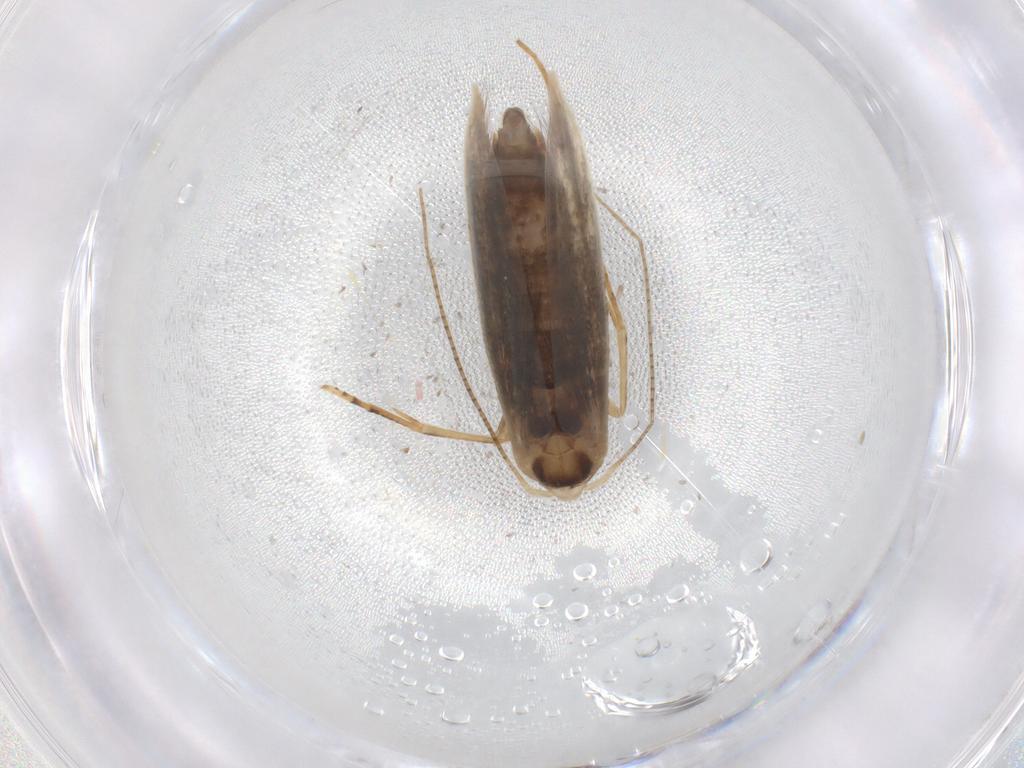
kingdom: Animalia
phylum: Arthropoda
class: Insecta
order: Lepidoptera
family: Bucculatricidae
